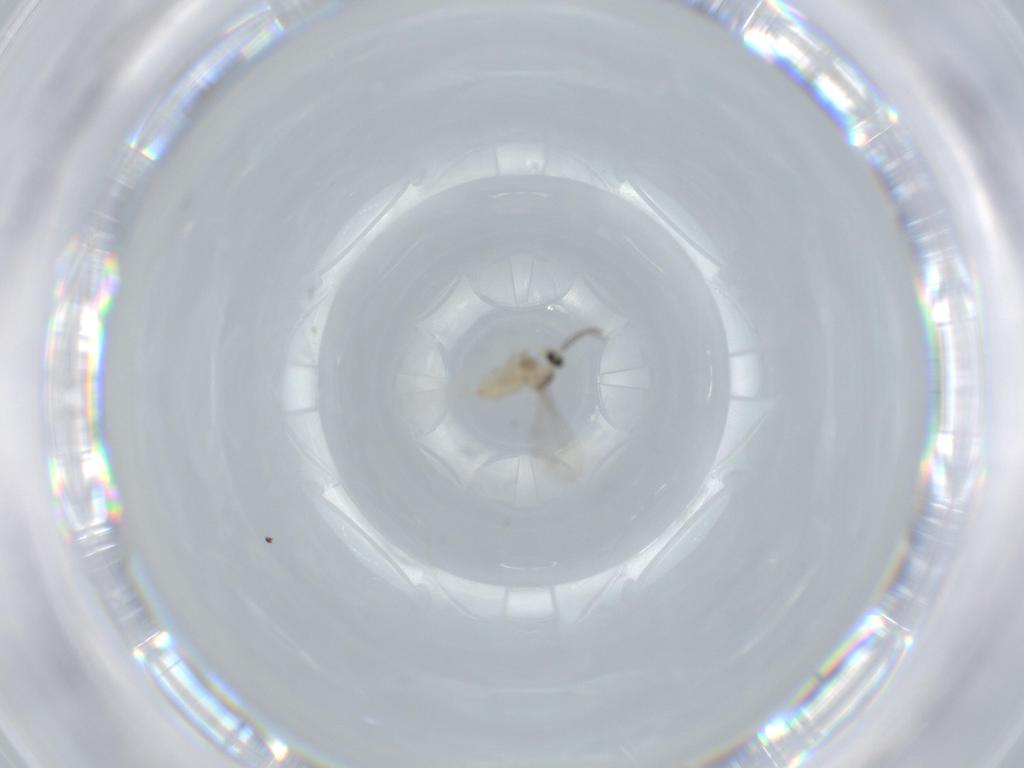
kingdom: Animalia
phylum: Arthropoda
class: Insecta
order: Diptera
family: Cecidomyiidae
